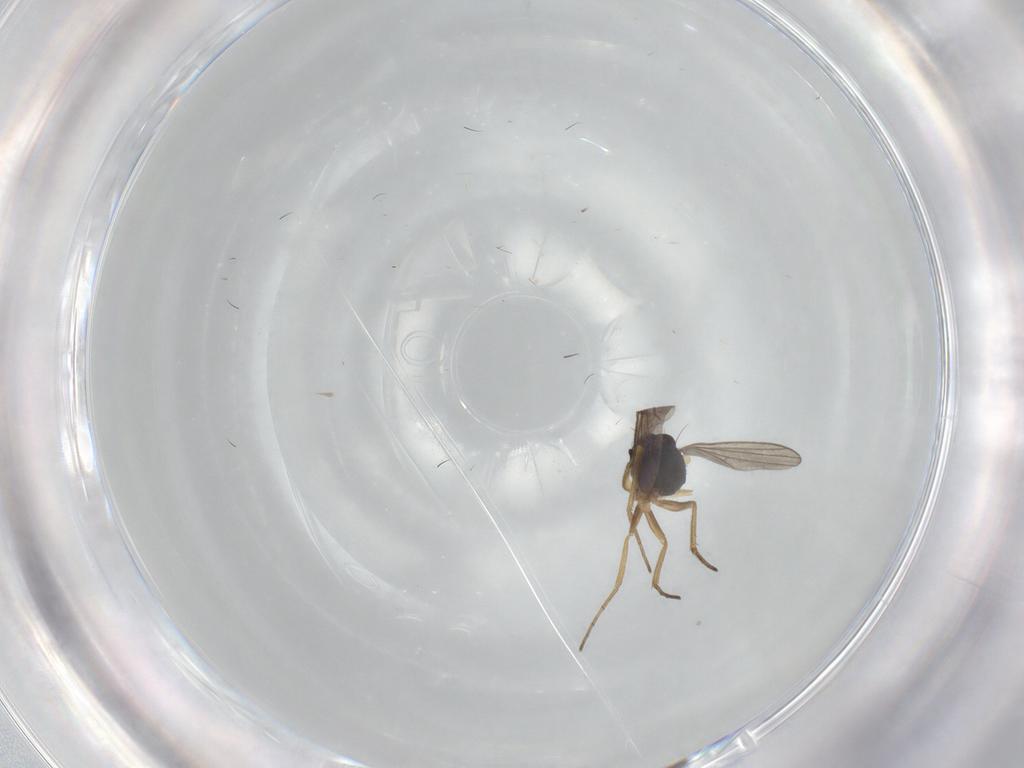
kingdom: Animalia
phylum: Arthropoda
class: Insecta
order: Diptera
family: Dolichopodidae
